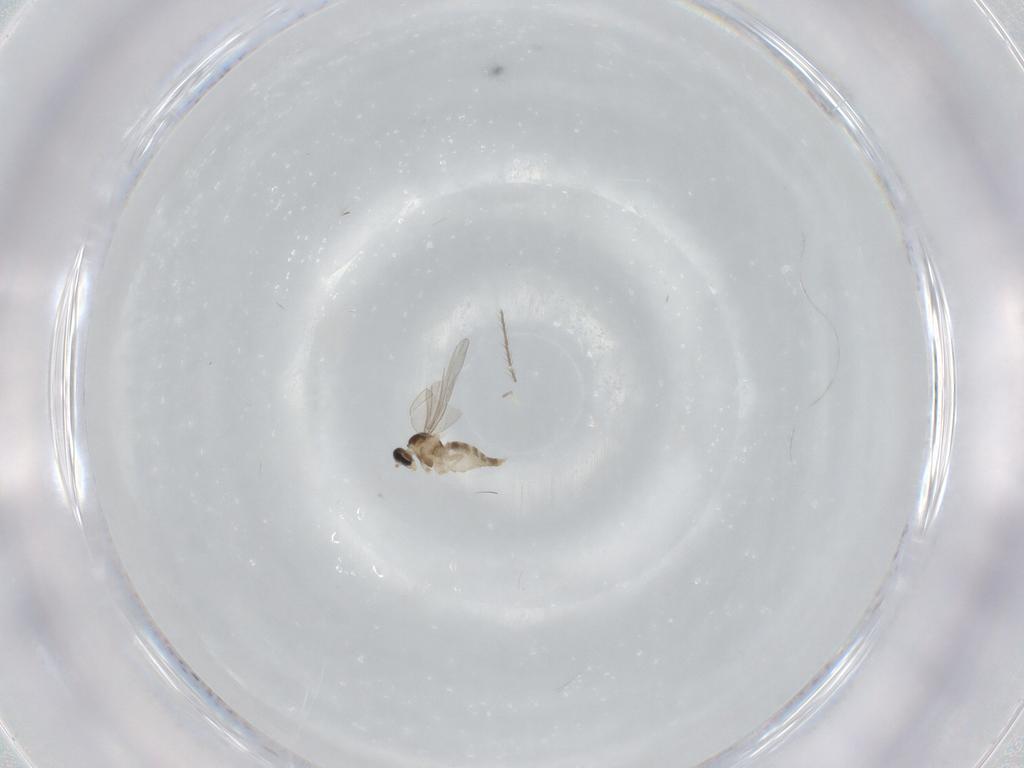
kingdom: Animalia
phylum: Arthropoda
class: Insecta
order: Diptera
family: Cecidomyiidae
